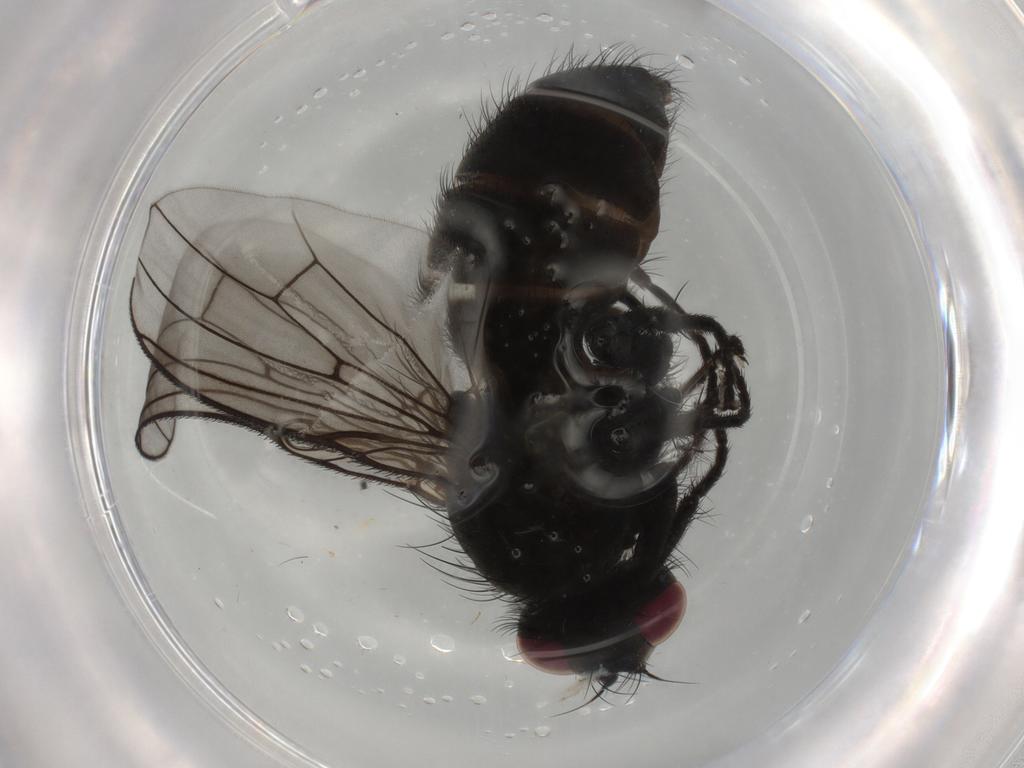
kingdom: Animalia
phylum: Arthropoda
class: Insecta
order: Diptera
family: Muscidae
